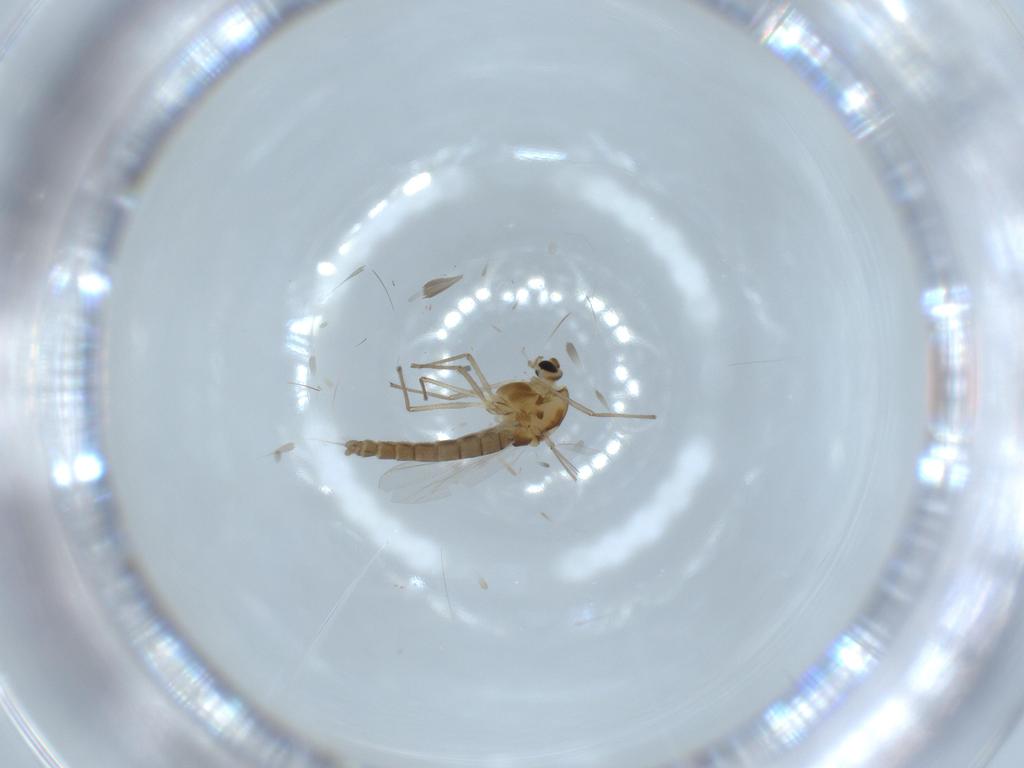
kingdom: Animalia
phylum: Arthropoda
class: Insecta
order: Diptera
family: Chironomidae
